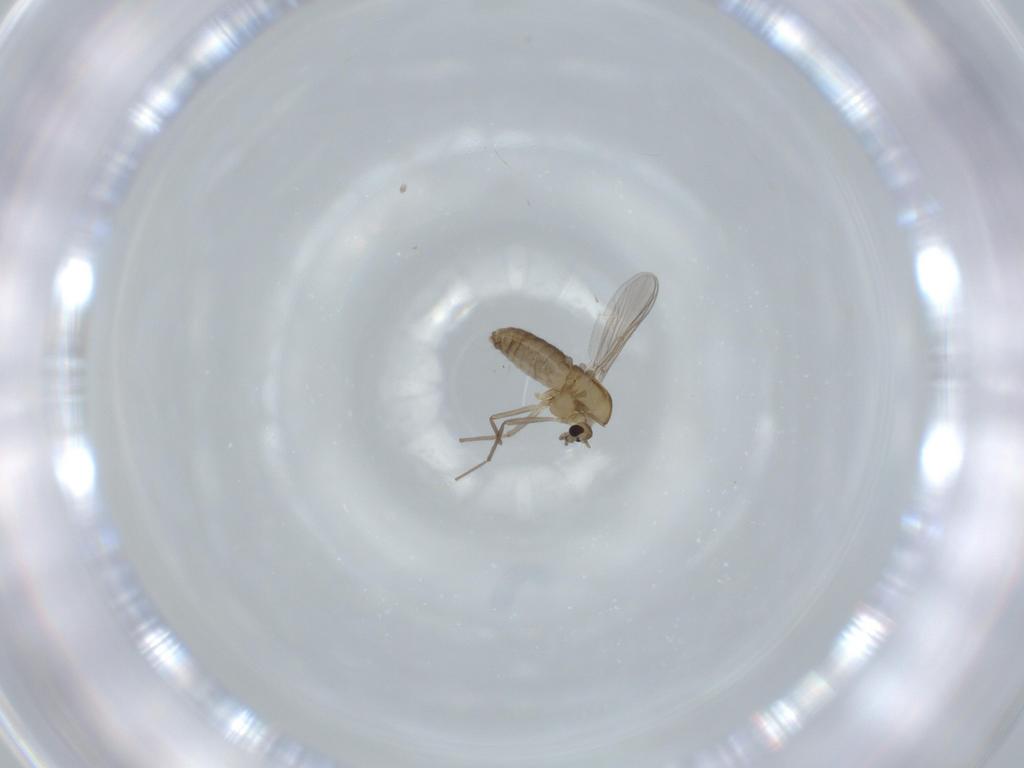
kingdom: Animalia
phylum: Arthropoda
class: Insecta
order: Diptera
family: Chironomidae
